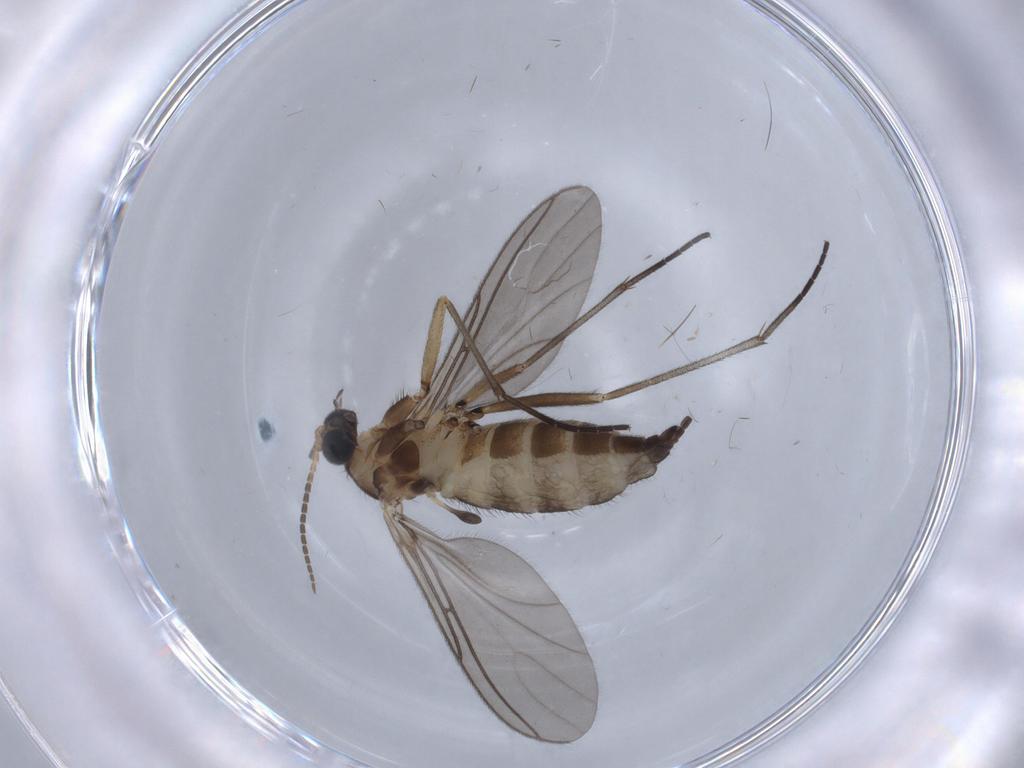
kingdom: Animalia
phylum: Arthropoda
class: Insecta
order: Diptera
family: Sciaridae
